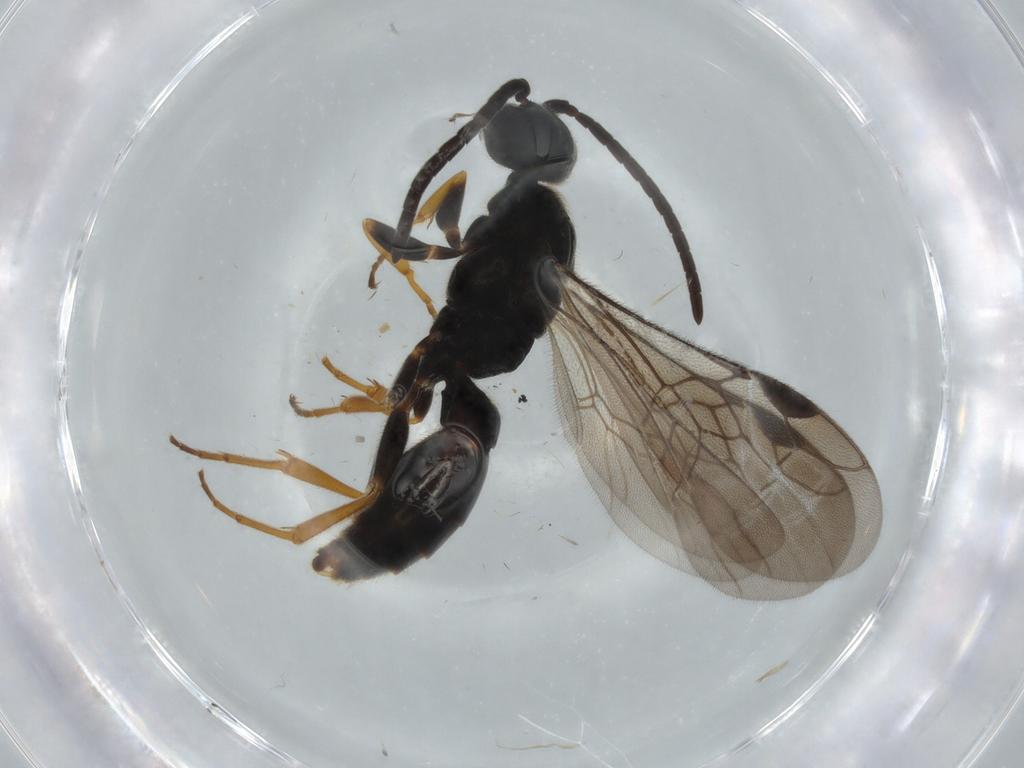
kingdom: Animalia
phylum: Arthropoda
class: Insecta
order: Hymenoptera
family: Sierolomorphidae
